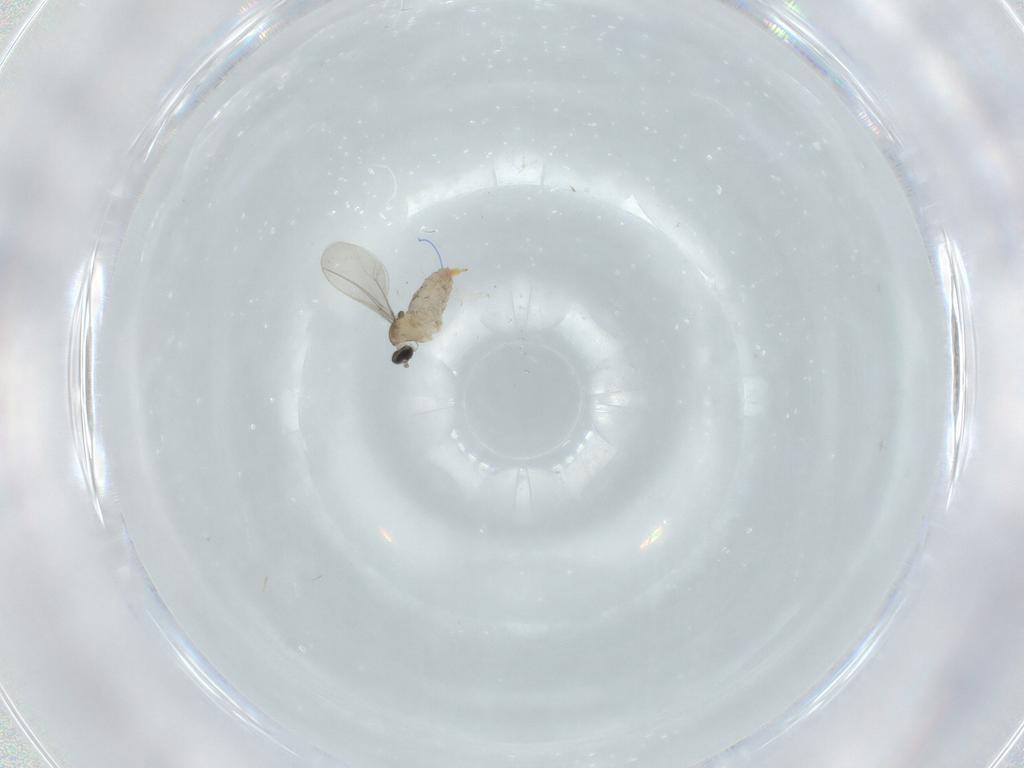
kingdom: Animalia
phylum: Arthropoda
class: Insecta
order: Diptera
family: Cecidomyiidae
